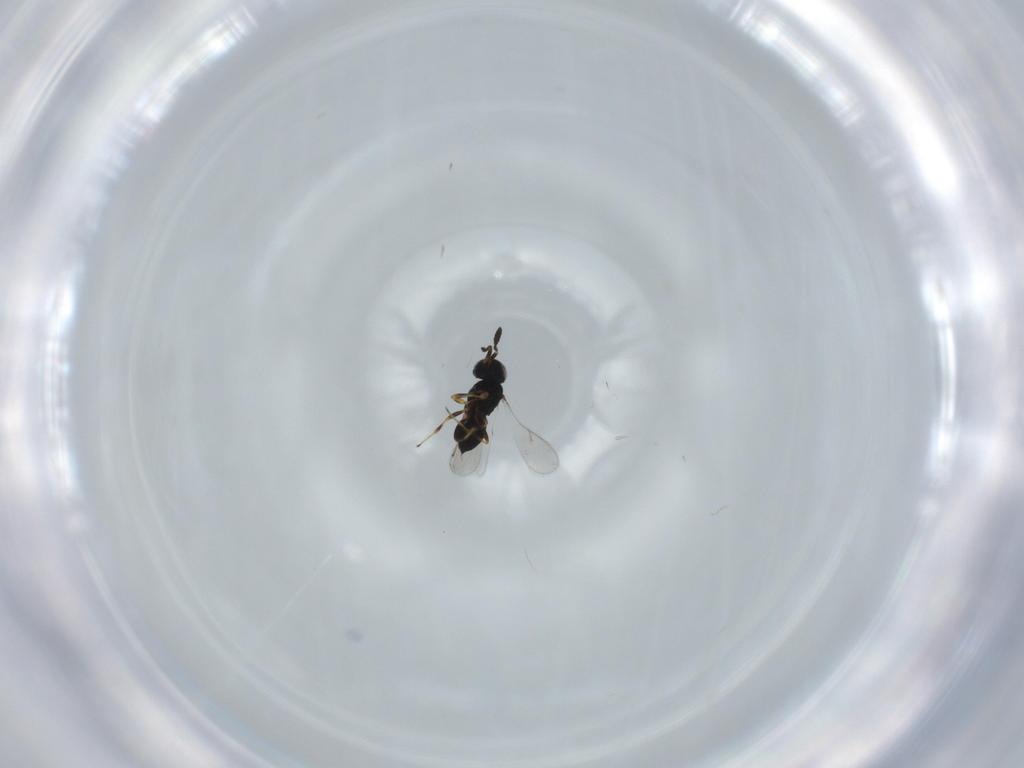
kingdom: Animalia
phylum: Arthropoda
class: Insecta
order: Hymenoptera
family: Scelionidae
